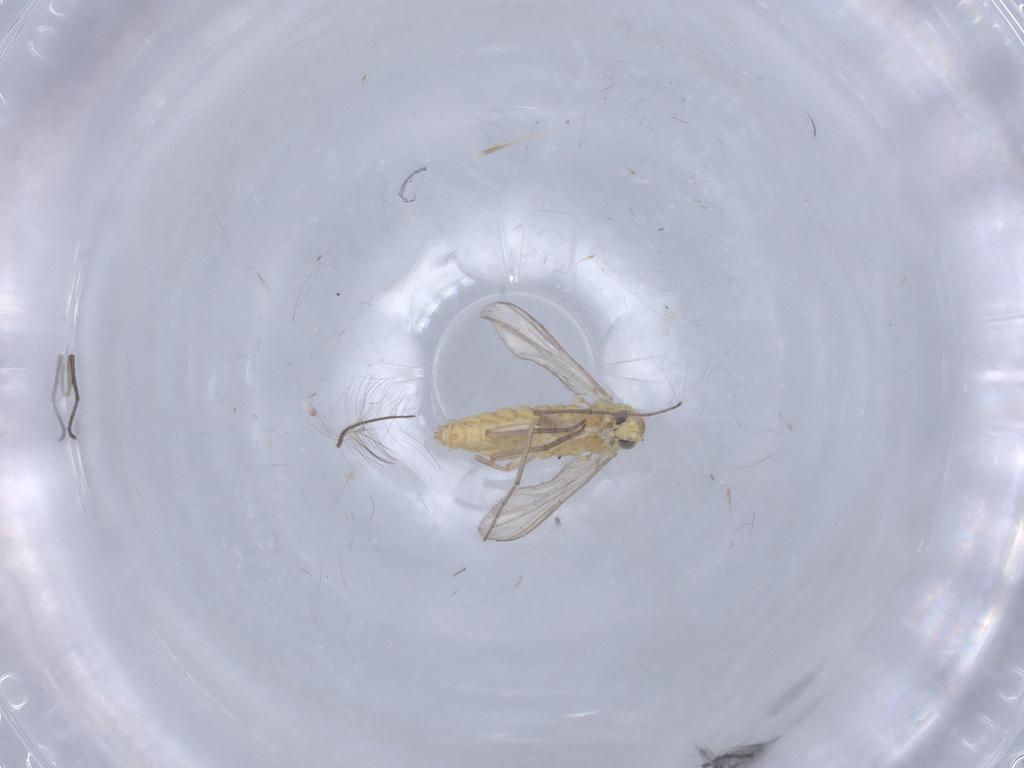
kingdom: Animalia
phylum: Arthropoda
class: Insecta
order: Diptera
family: Chironomidae
